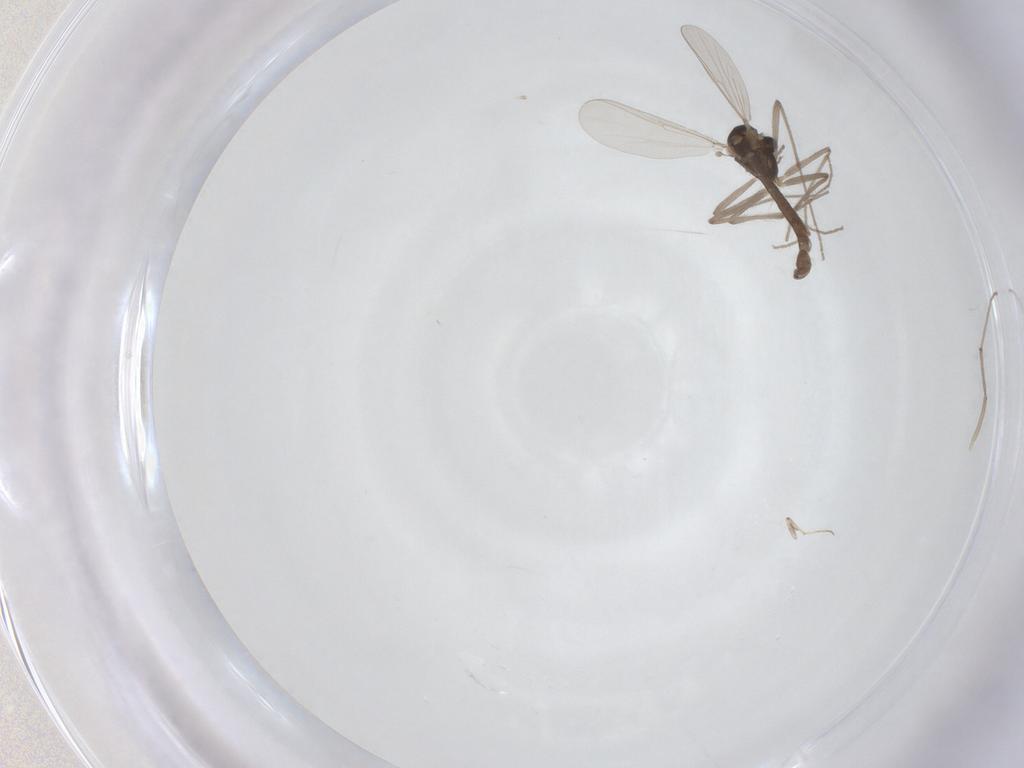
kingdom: Animalia
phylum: Arthropoda
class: Insecta
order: Diptera
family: Chironomidae
